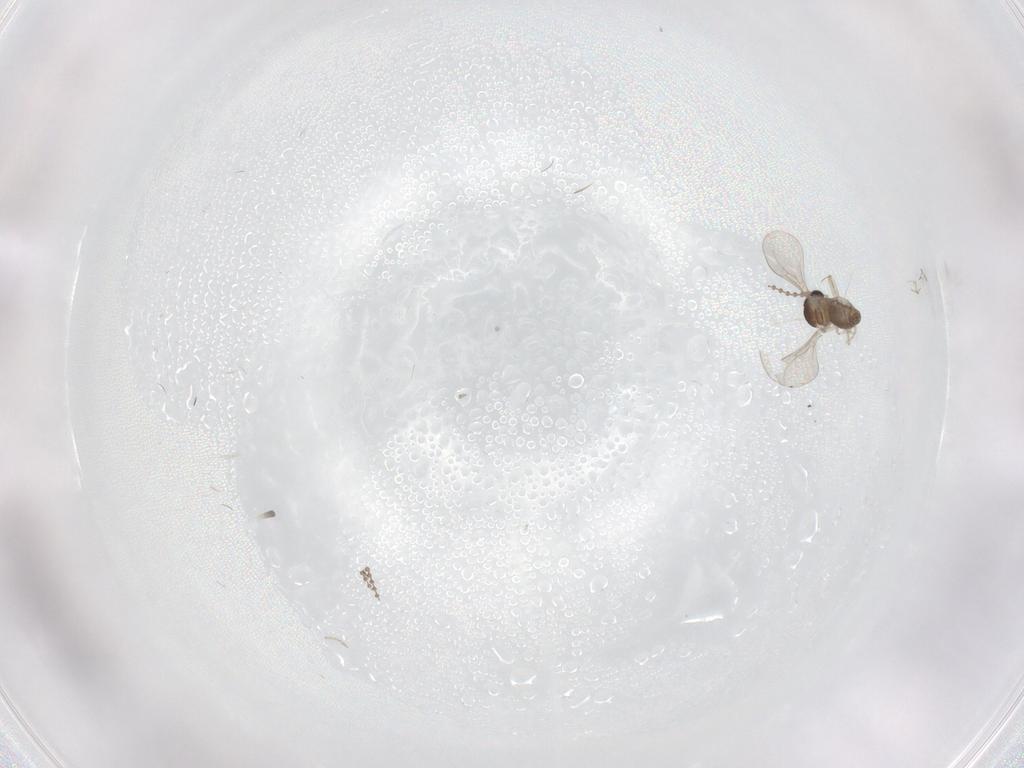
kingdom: Animalia
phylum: Arthropoda
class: Insecta
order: Diptera
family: Cecidomyiidae
